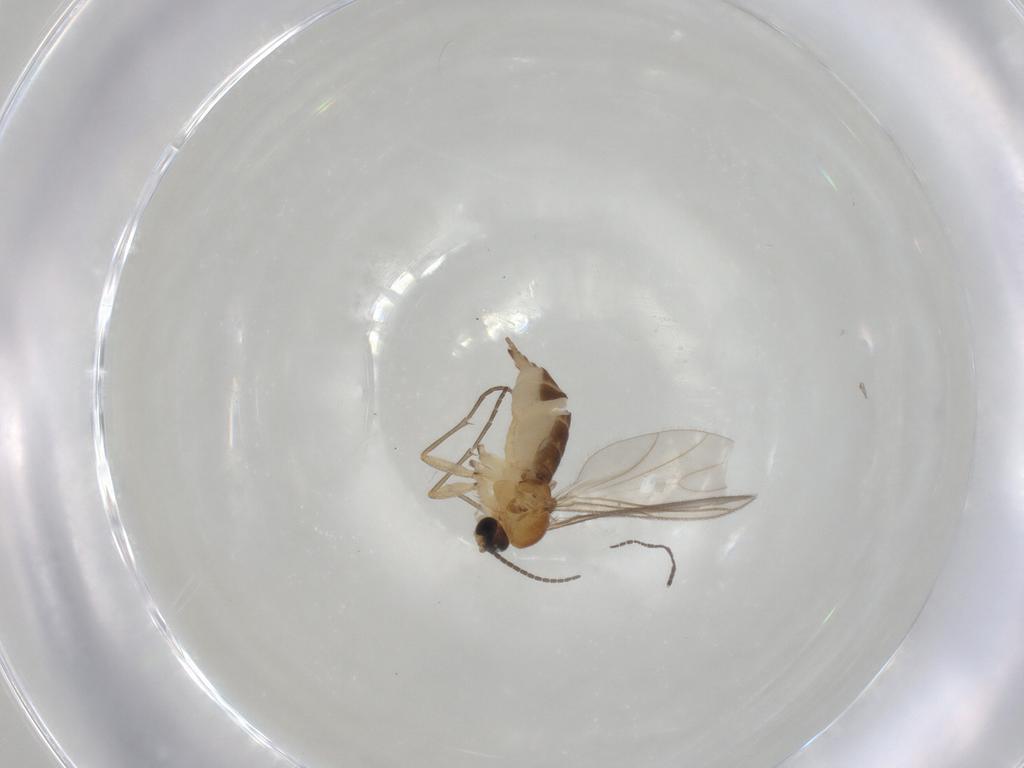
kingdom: Animalia
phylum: Arthropoda
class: Insecta
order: Diptera
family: Sciaridae
